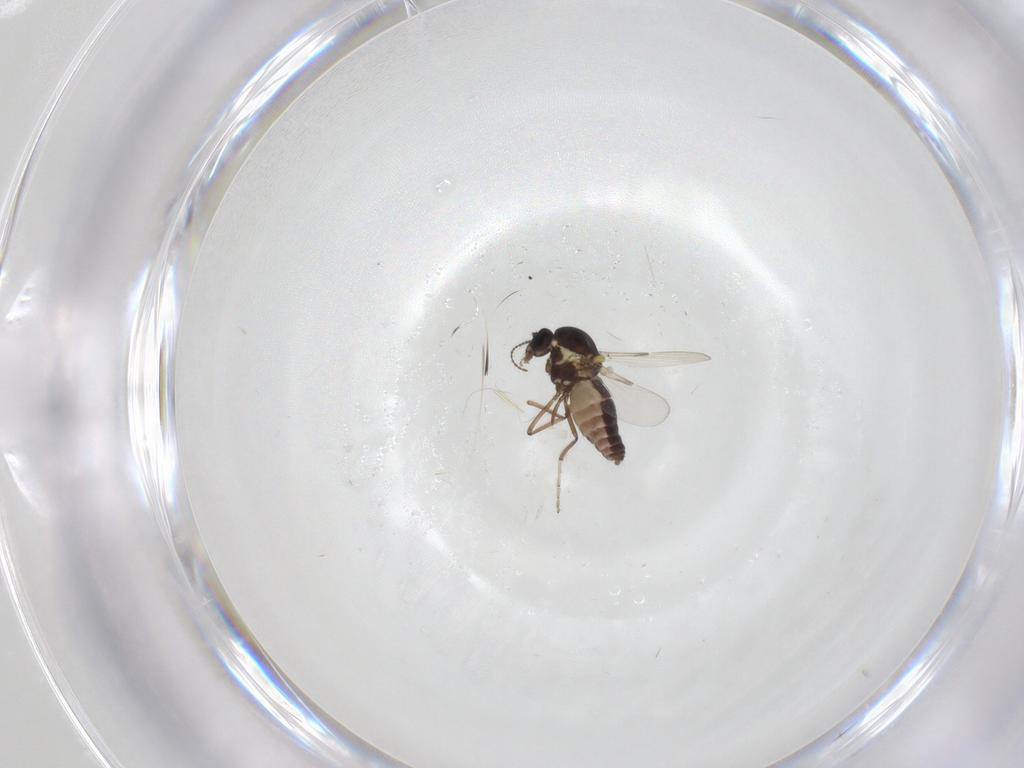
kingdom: Animalia
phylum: Arthropoda
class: Insecta
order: Diptera
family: Ceratopogonidae
